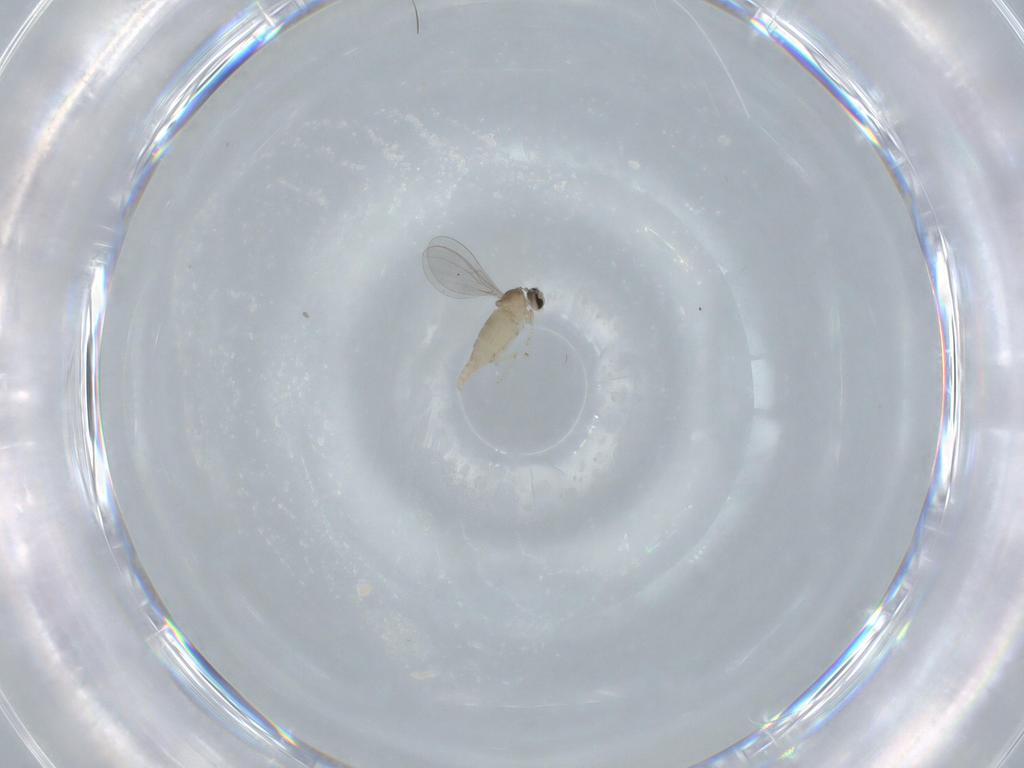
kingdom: Animalia
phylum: Arthropoda
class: Insecta
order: Diptera
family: Cecidomyiidae
